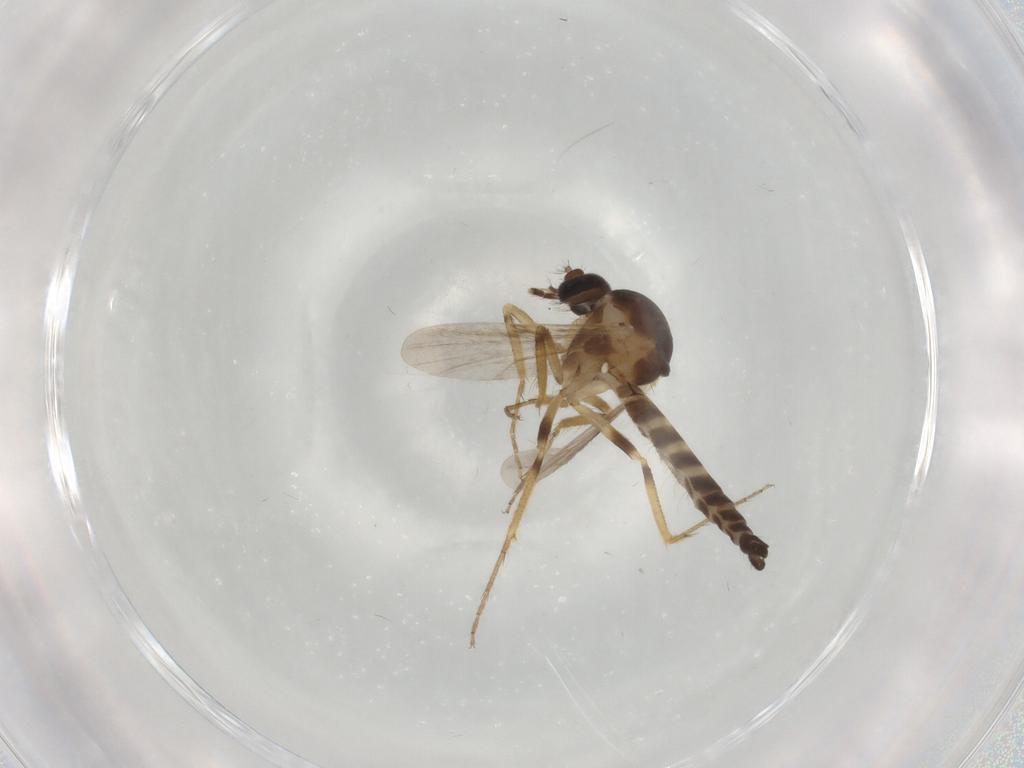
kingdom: Animalia
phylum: Arthropoda
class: Insecta
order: Diptera
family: Ceratopogonidae
